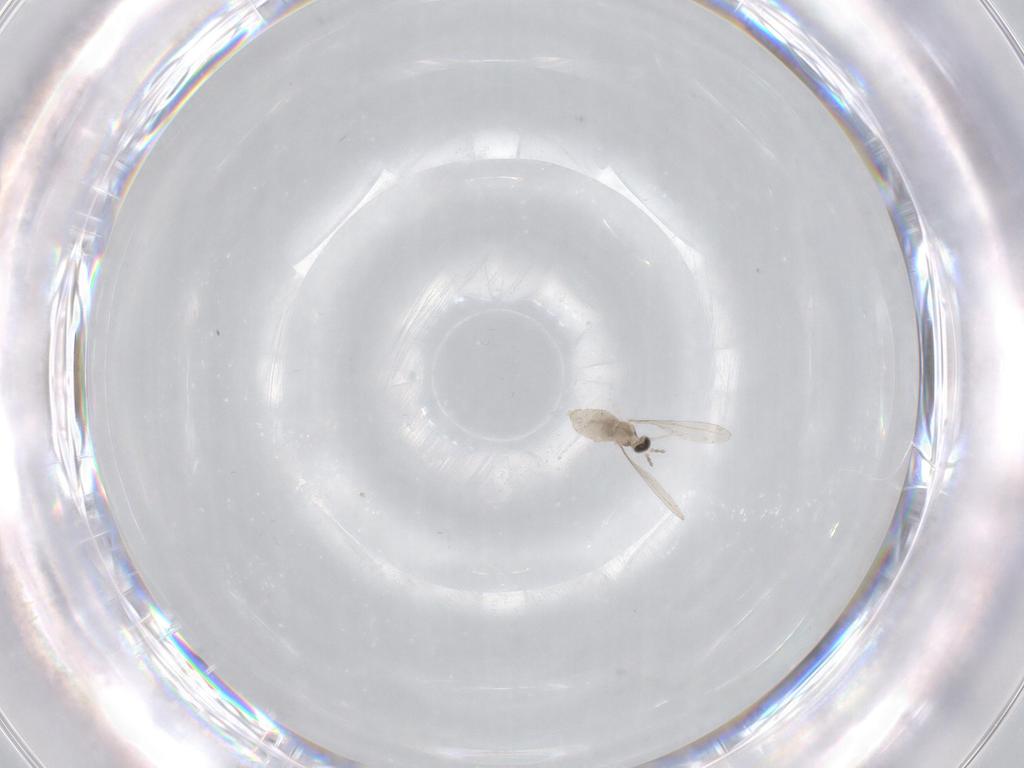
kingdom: Animalia
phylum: Arthropoda
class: Insecta
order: Diptera
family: Cecidomyiidae
